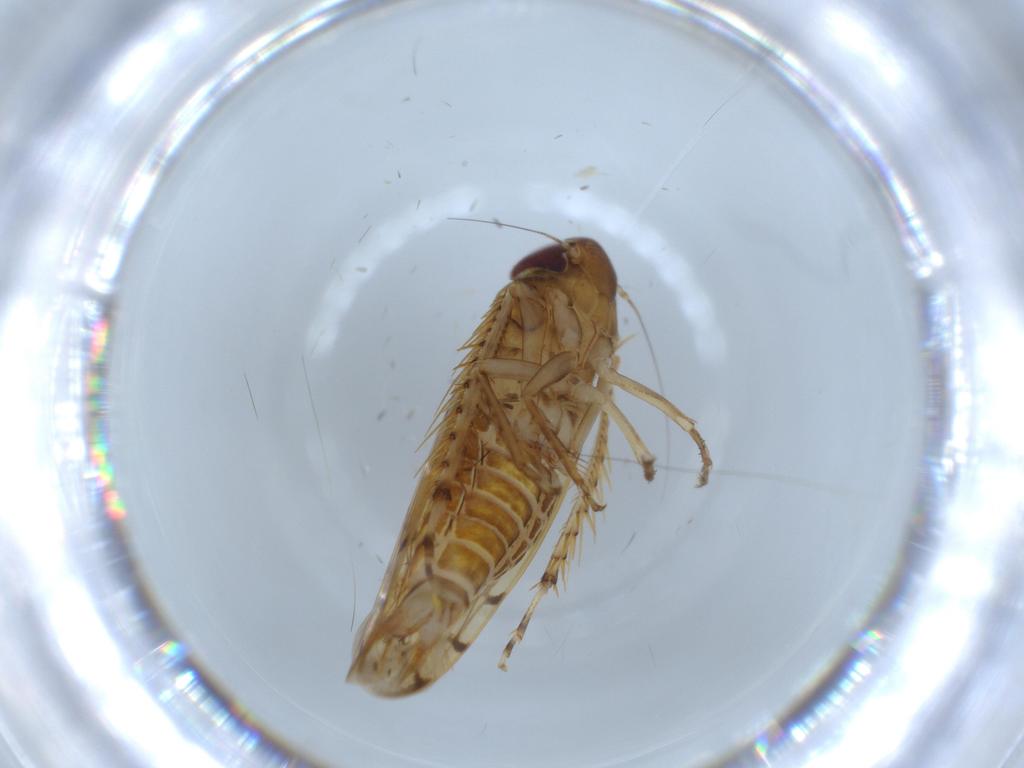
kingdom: Animalia
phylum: Arthropoda
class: Insecta
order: Hemiptera
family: Cicadellidae
